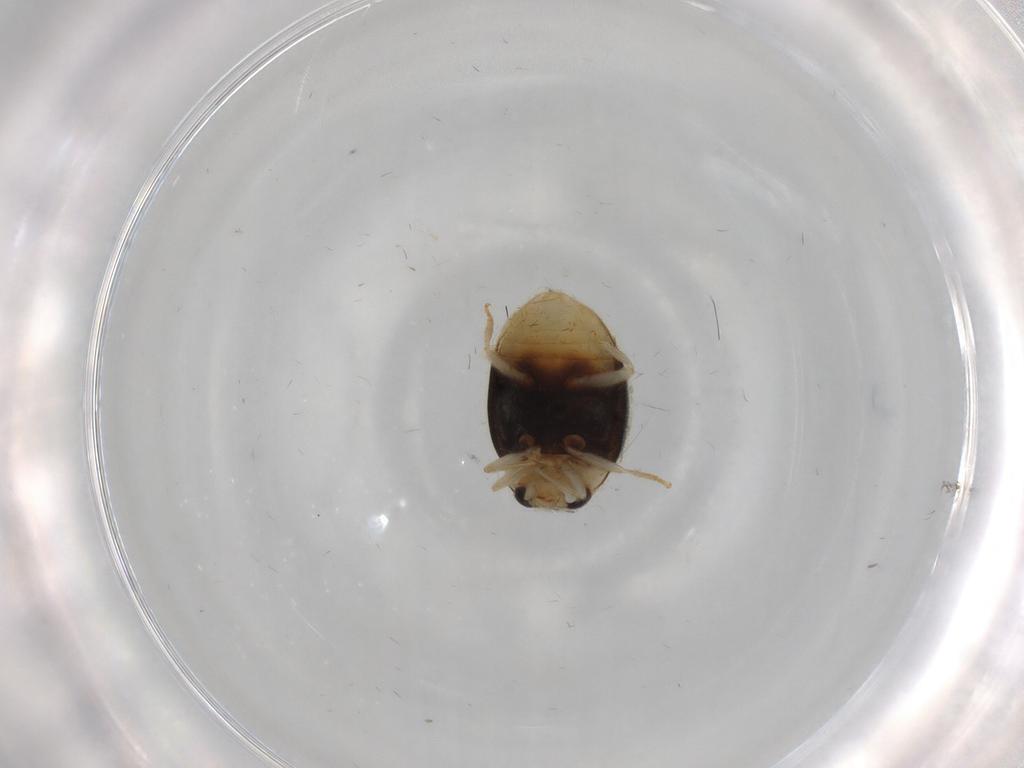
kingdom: Animalia
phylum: Arthropoda
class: Insecta
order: Coleoptera
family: Coccinellidae
